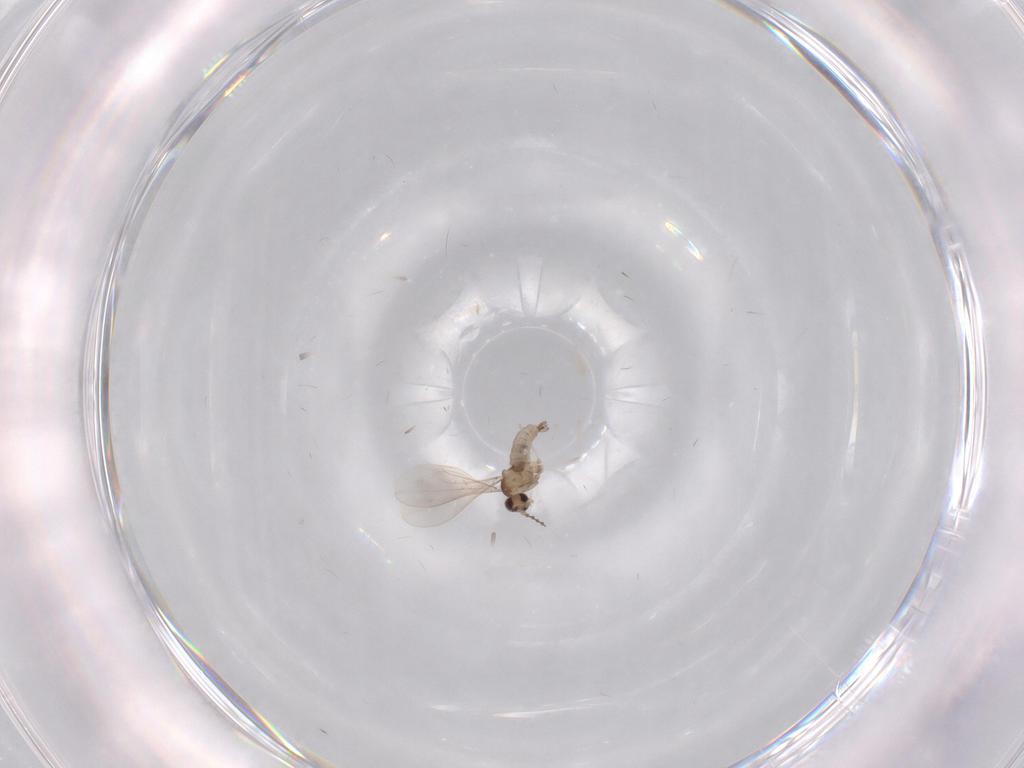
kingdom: Animalia
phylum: Arthropoda
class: Insecta
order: Diptera
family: Cecidomyiidae
